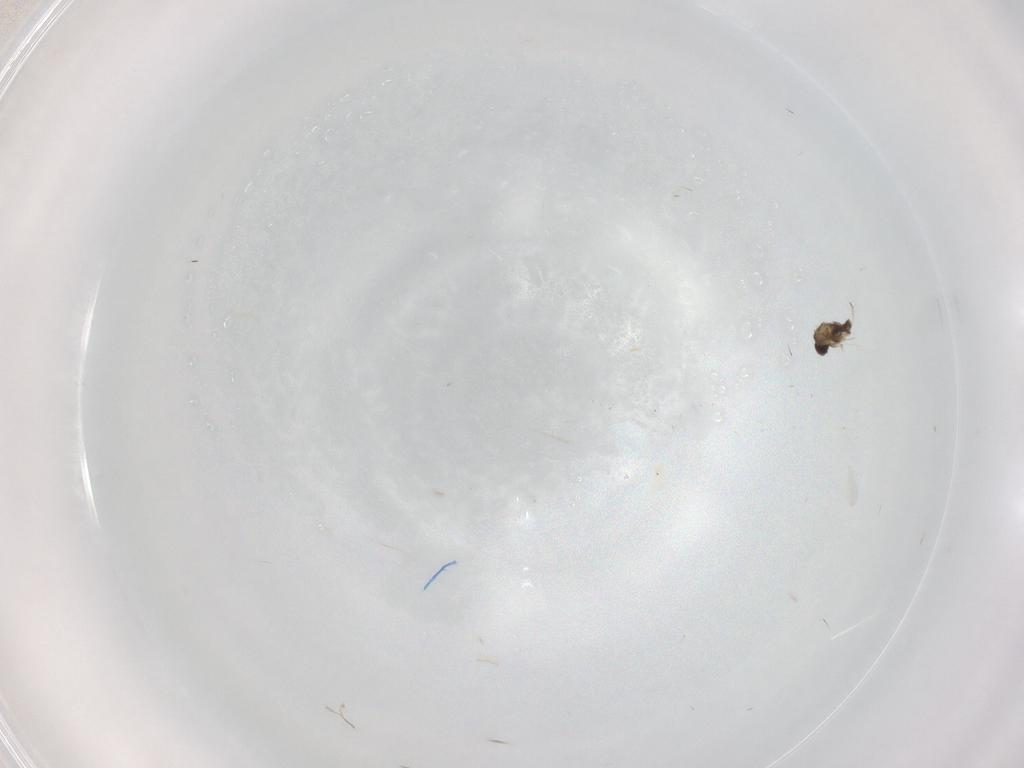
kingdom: Animalia
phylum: Arthropoda
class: Insecta
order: Diptera
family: Cecidomyiidae
